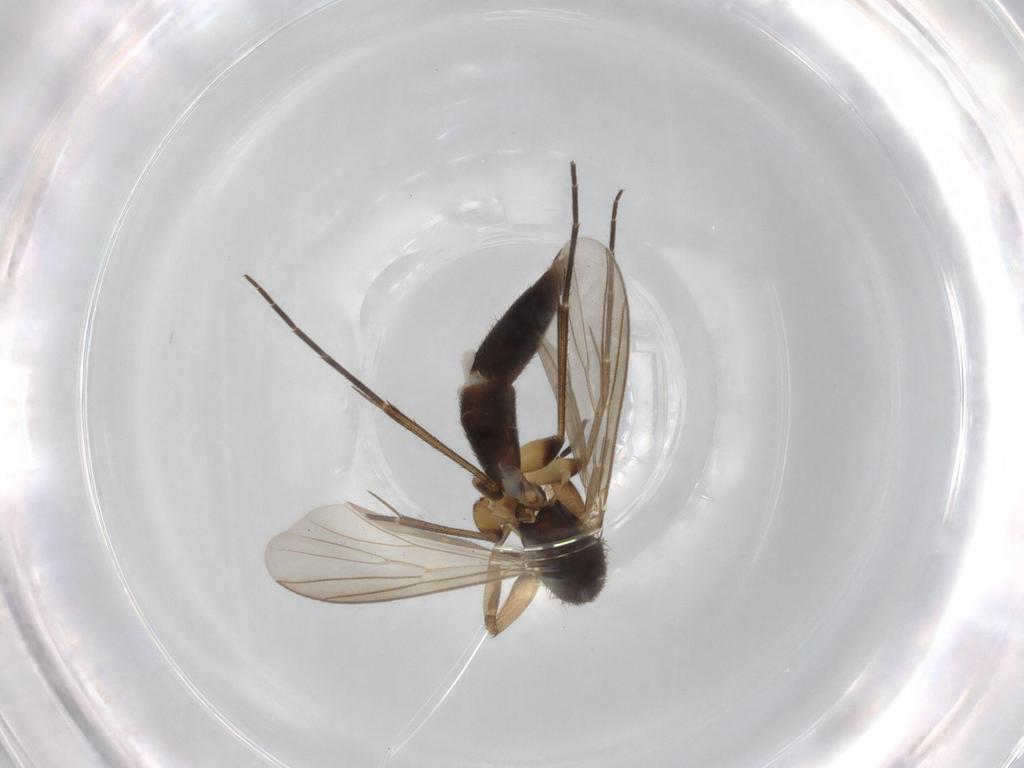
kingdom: Animalia
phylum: Arthropoda
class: Insecta
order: Diptera
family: Mycetophilidae
